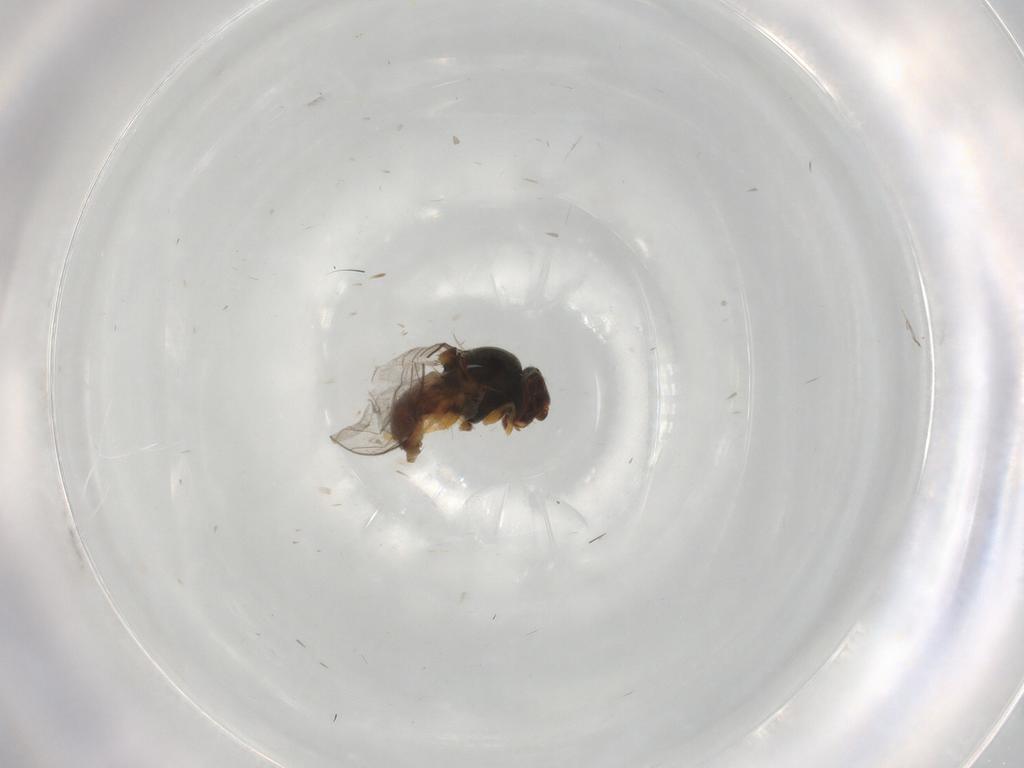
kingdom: Animalia
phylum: Arthropoda
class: Insecta
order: Diptera
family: Chloropidae
